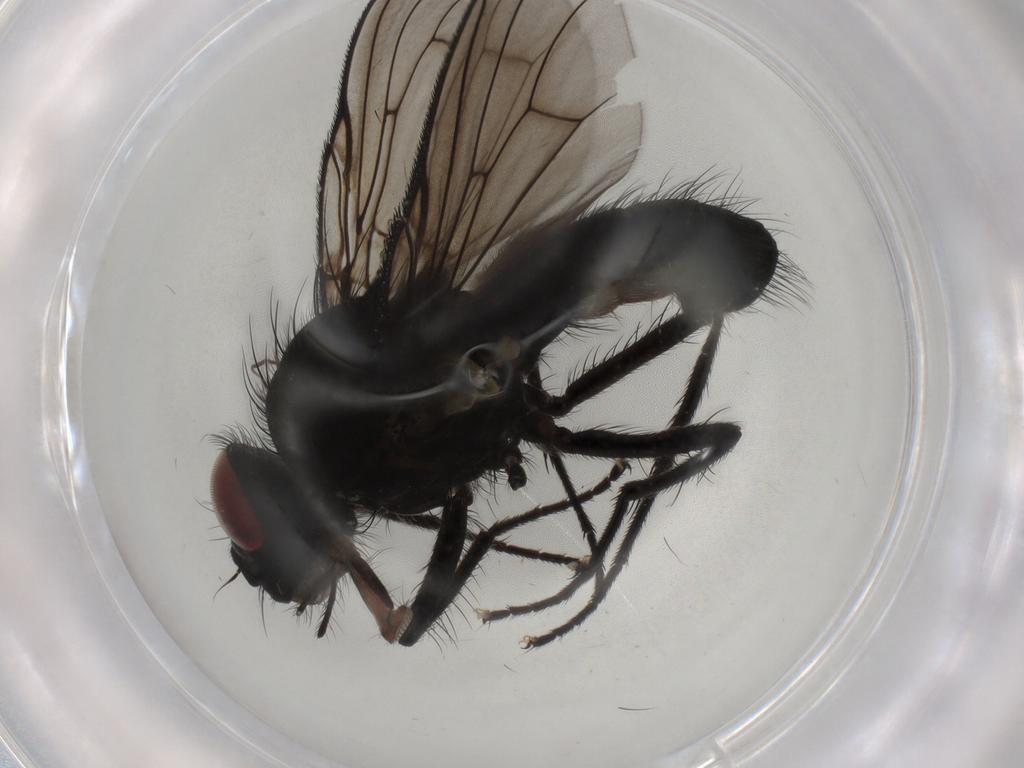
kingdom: Animalia
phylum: Arthropoda
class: Insecta
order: Diptera
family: Muscidae
